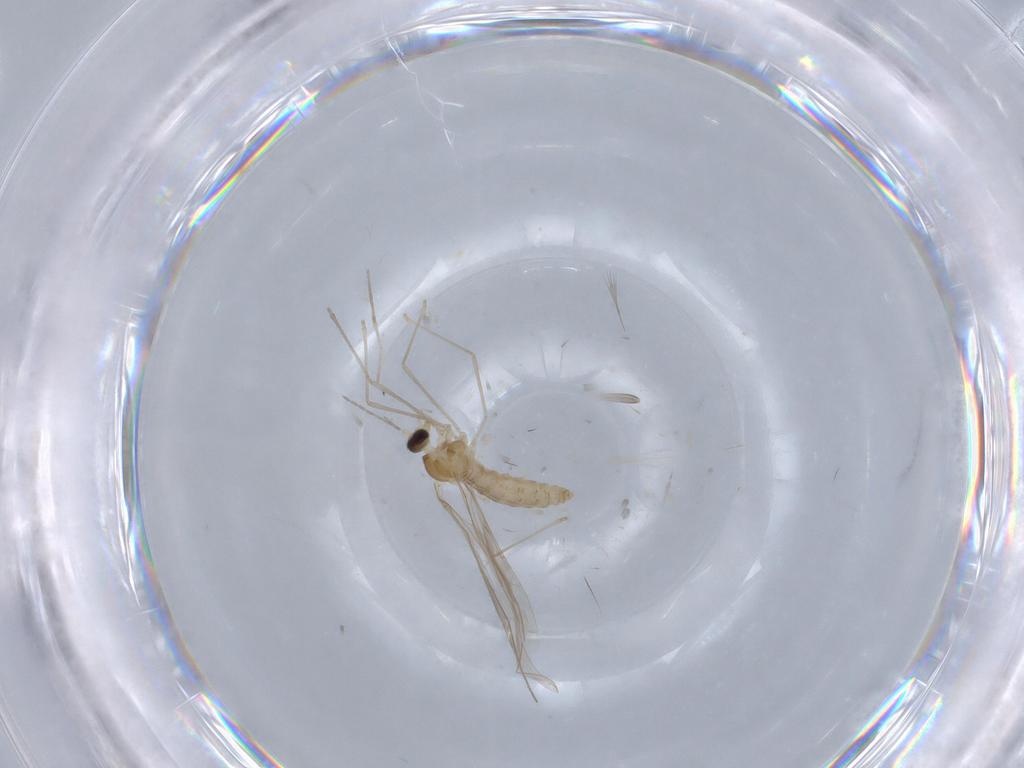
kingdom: Animalia
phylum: Arthropoda
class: Insecta
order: Diptera
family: Cecidomyiidae
